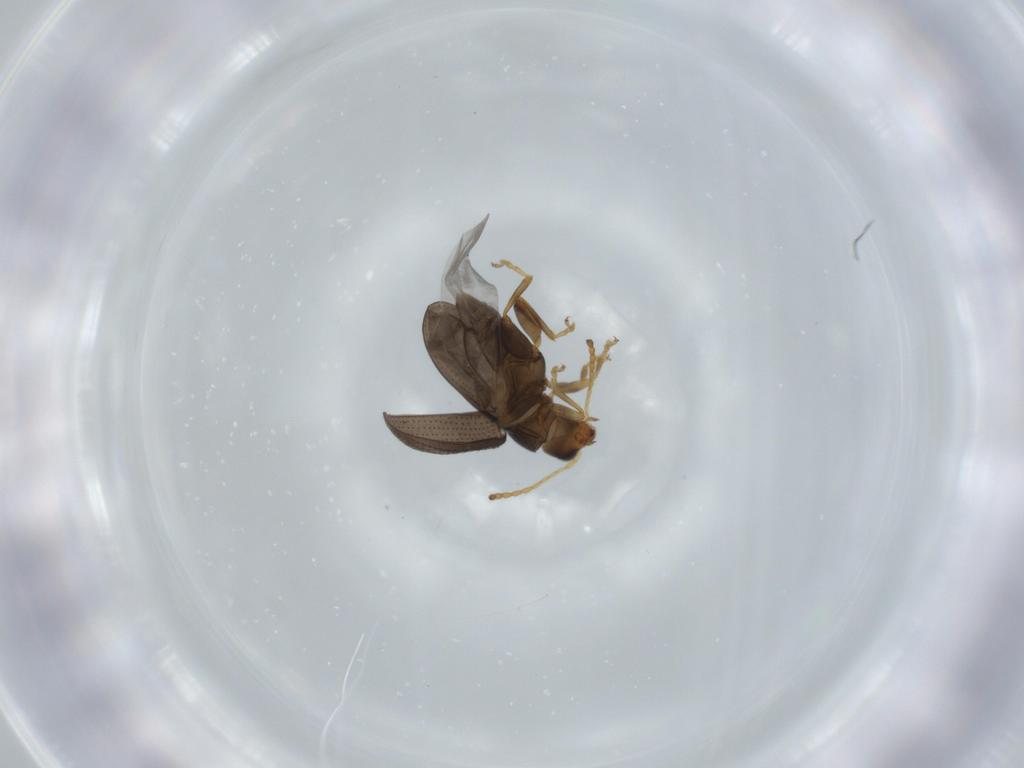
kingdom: Animalia
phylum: Arthropoda
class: Insecta
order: Coleoptera
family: Chrysomelidae
